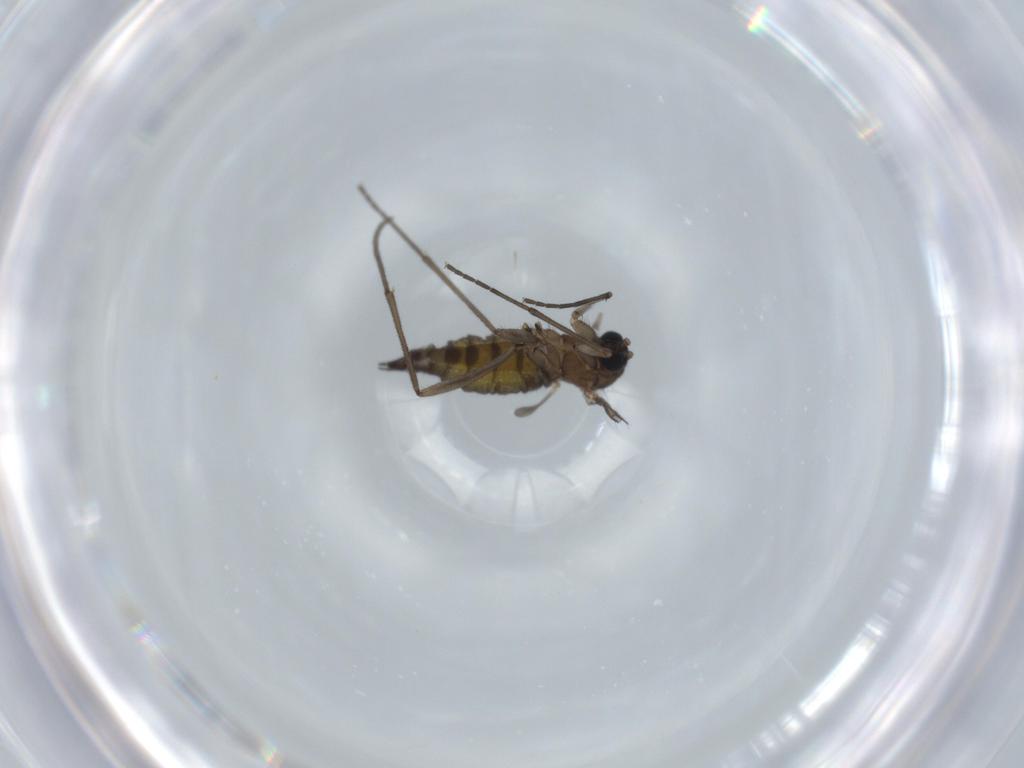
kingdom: Animalia
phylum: Arthropoda
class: Insecta
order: Diptera
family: Sciaridae
